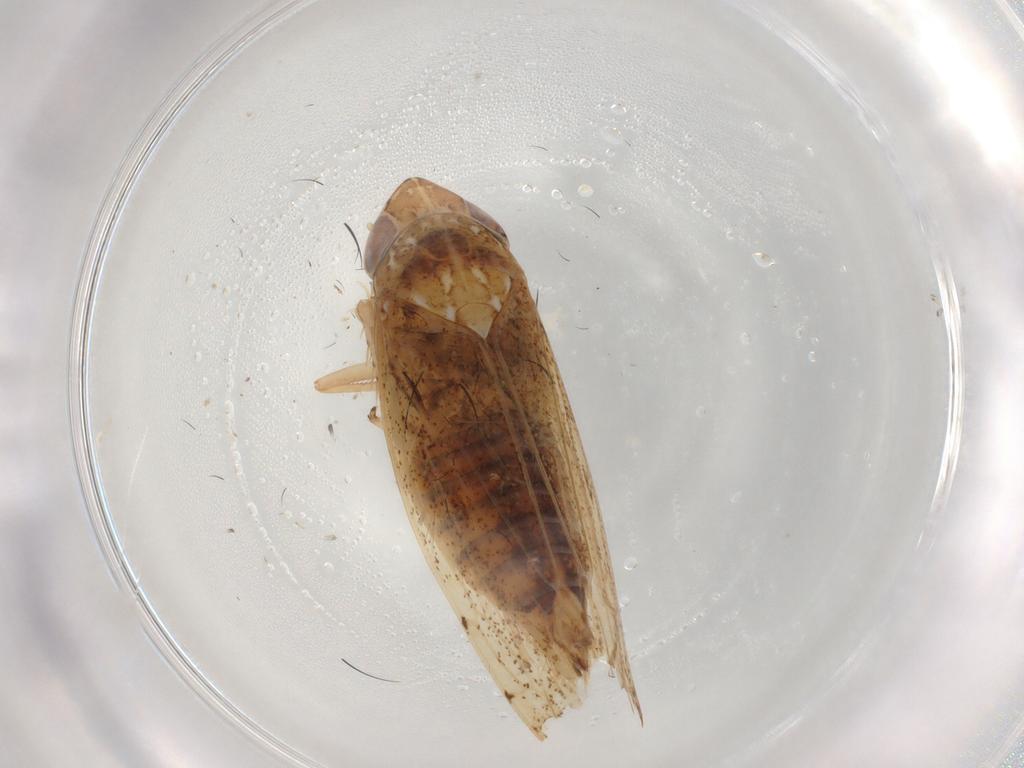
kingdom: Animalia
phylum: Arthropoda
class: Insecta
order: Hemiptera
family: Cicadellidae
